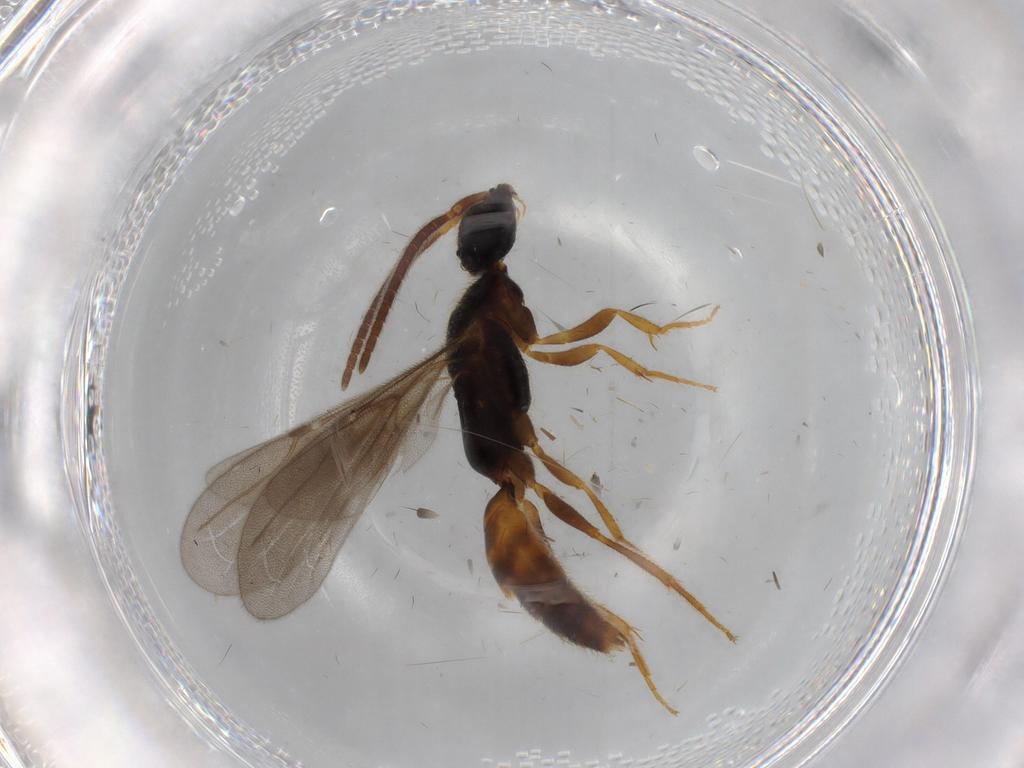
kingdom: Animalia
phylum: Arthropoda
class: Insecta
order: Hymenoptera
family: Bethylidae
